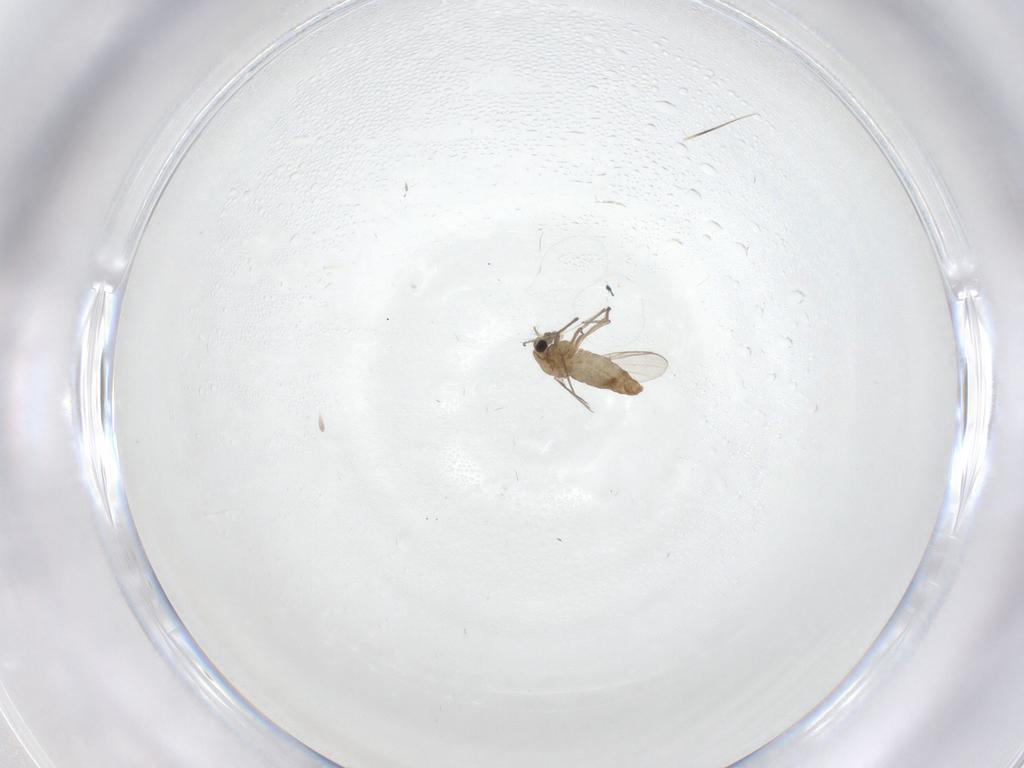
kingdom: Animalia
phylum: Arthropoda
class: Insecta
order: Diptera
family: Chironomidae
